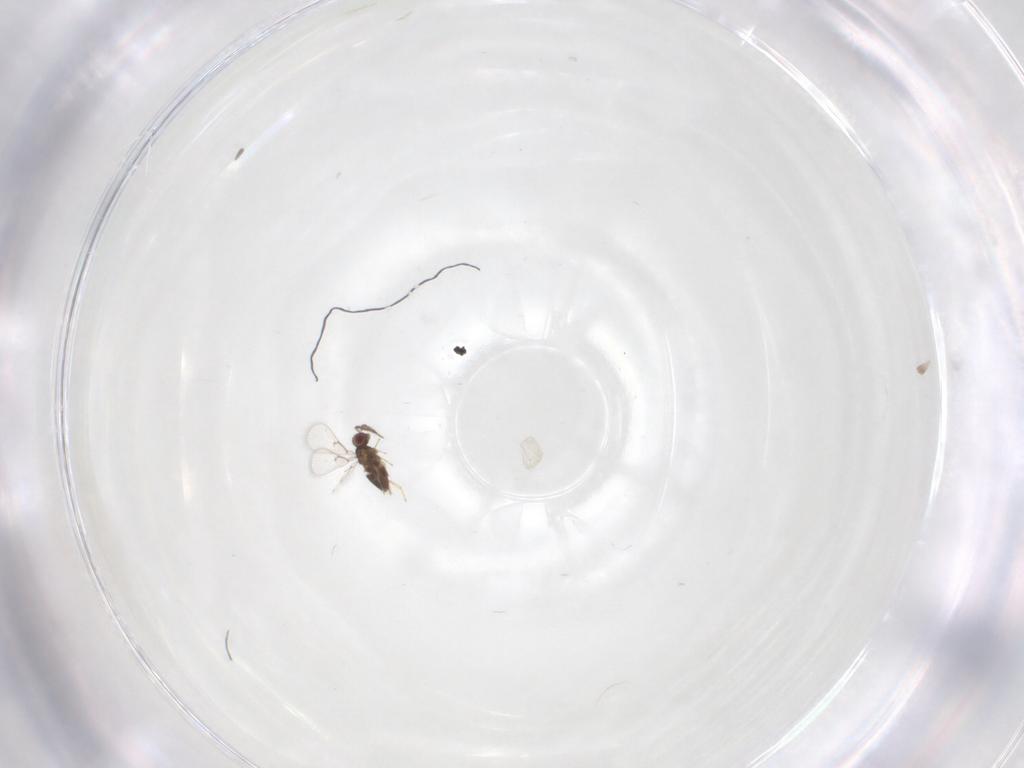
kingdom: Animalia
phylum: Arthropoda
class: Insecta
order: Hymenoptera
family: Trichogrammatidae
